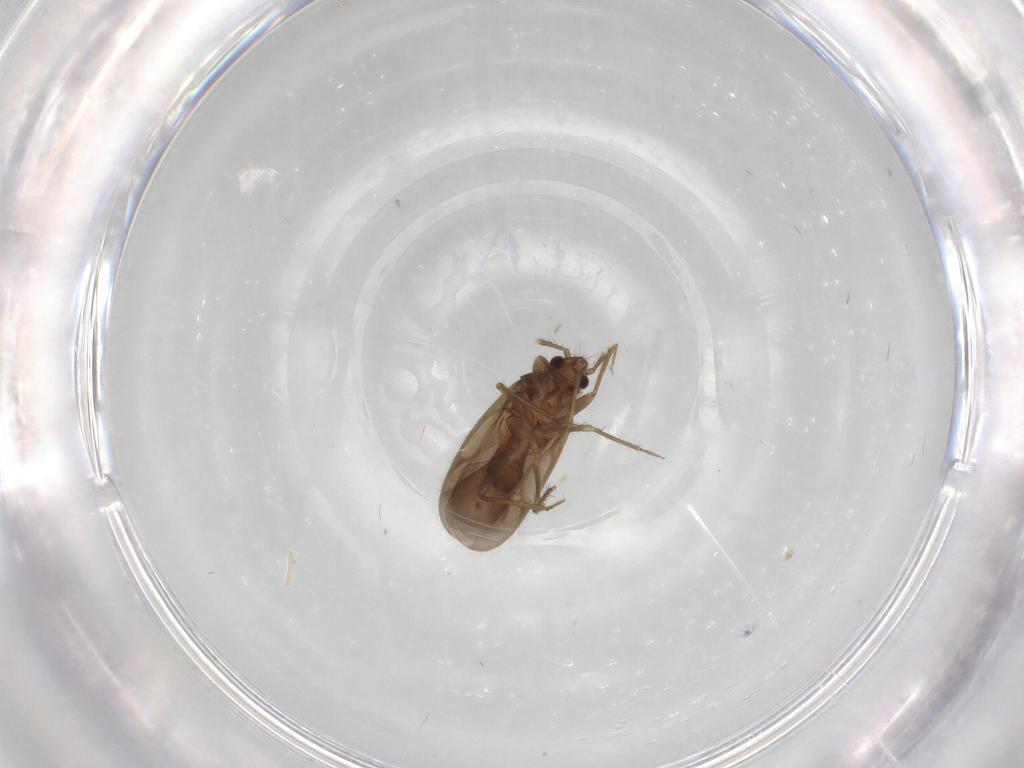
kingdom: Animalia
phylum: Arthropoda
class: Insecta
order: Hemiptera
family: Ceratocombidae
